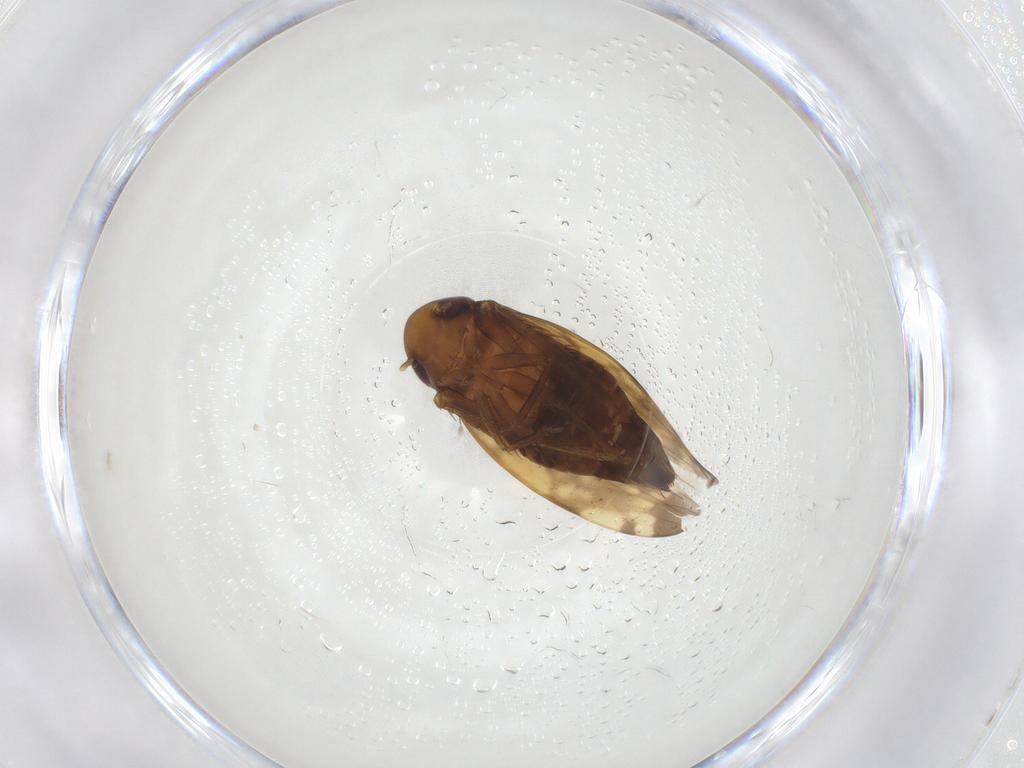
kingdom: Animalia
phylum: Arthropoda
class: Insecta
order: Hemiptera
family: Cicadellidae
